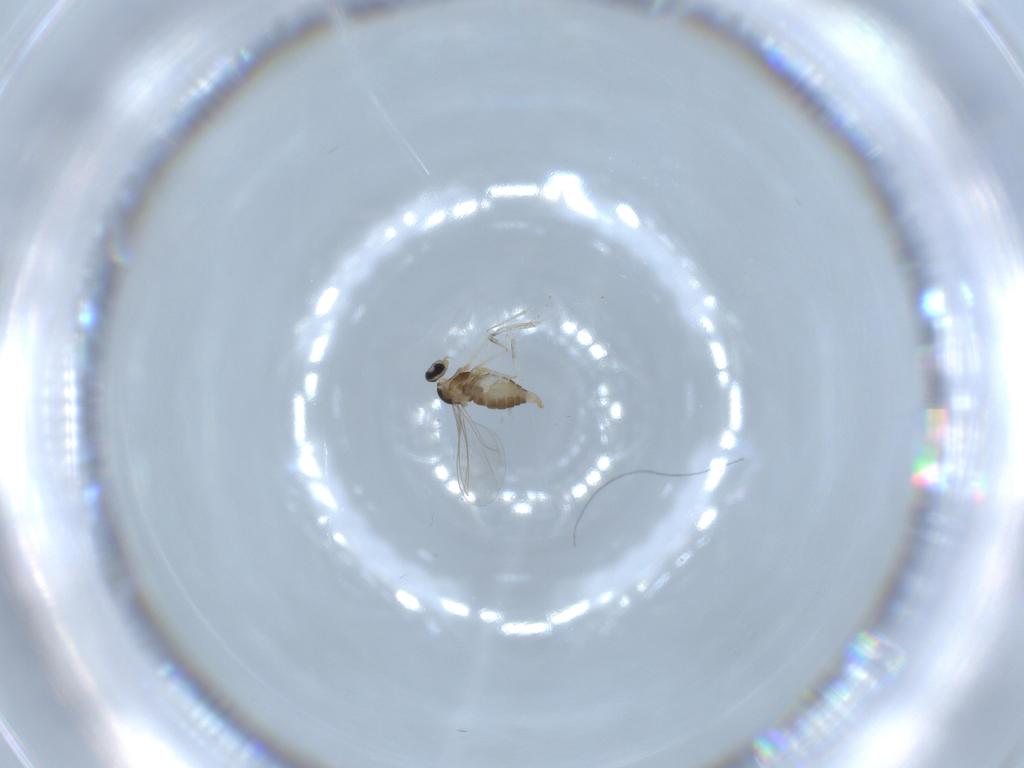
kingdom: Animalia
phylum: Arthropoda
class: Insecta
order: Diptera
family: Cecidomyiidae
